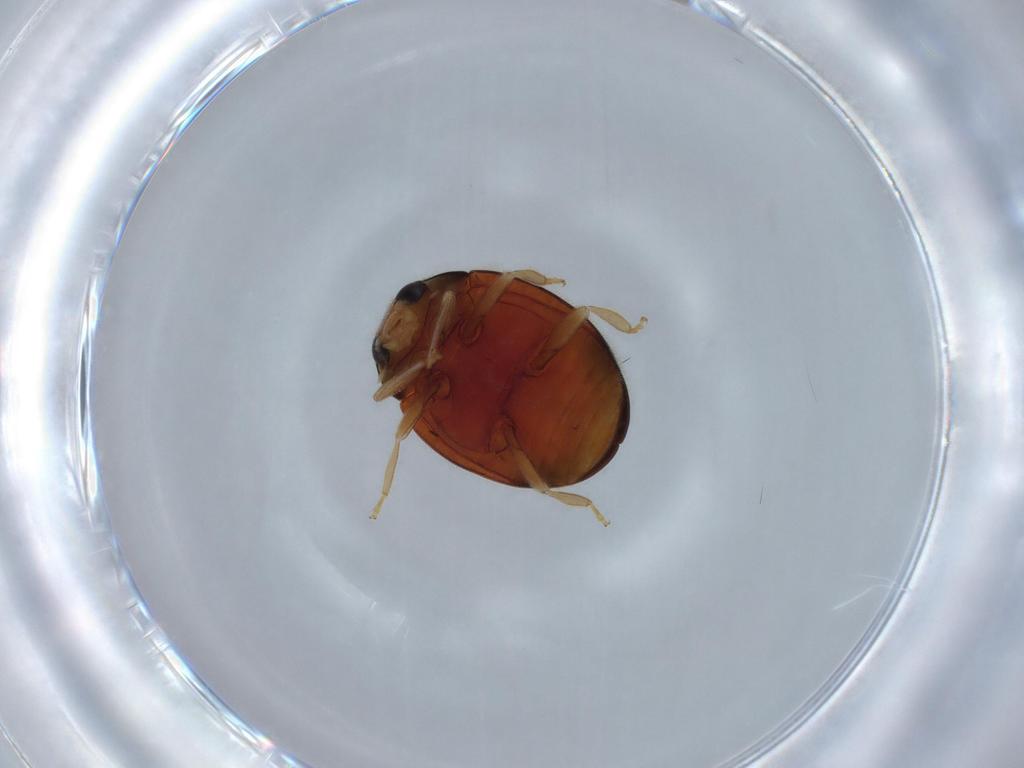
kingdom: Animalia
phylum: Arthropoda
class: Insecta
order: Coleoptera
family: Coccinellidae
